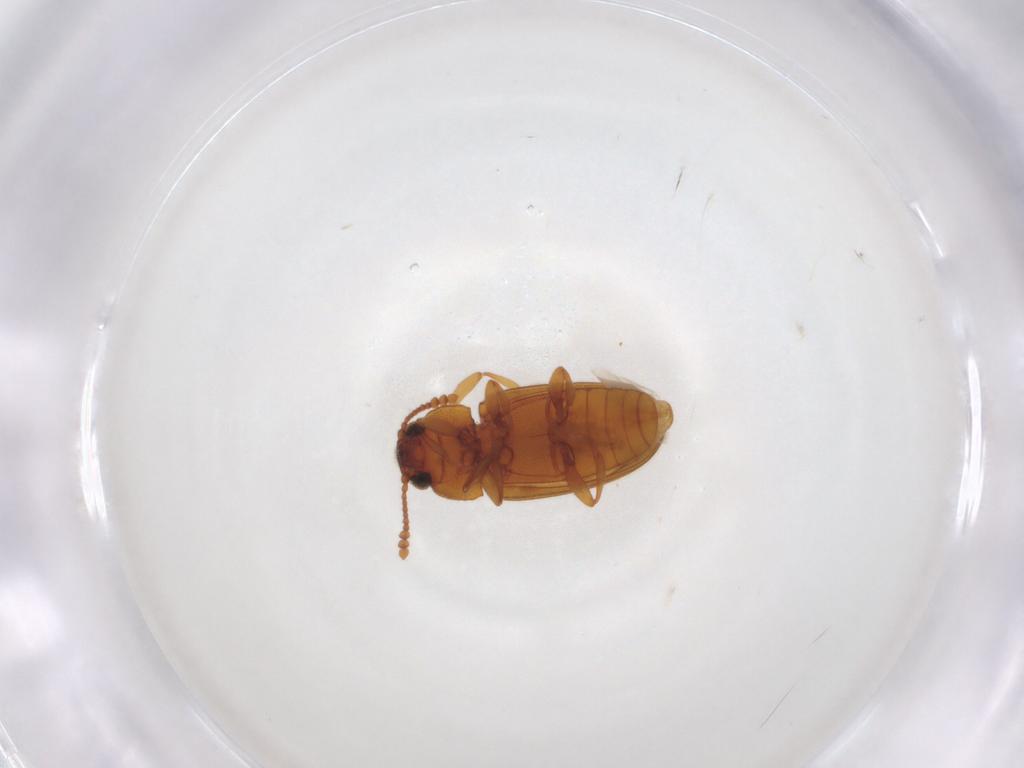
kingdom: Animalia
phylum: Arthropoda
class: Insecta
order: Coleoptera
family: Erotylidae
